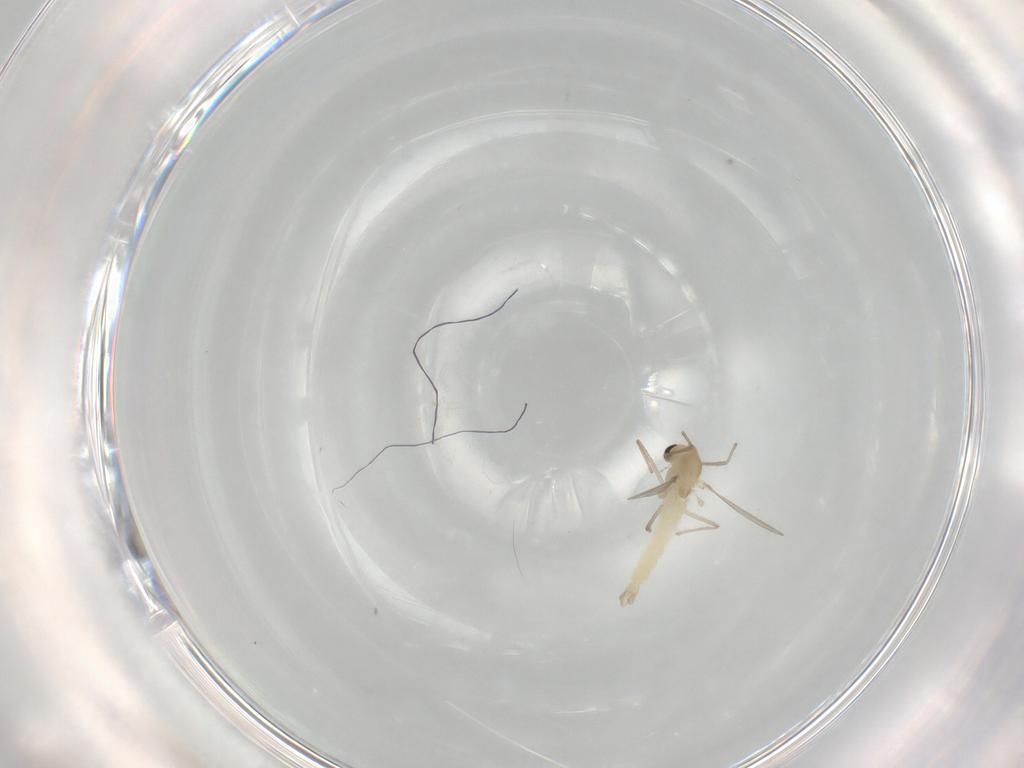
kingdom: Animalia
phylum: Arthropoda
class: Insecta
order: Diptera
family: Chironomidae
